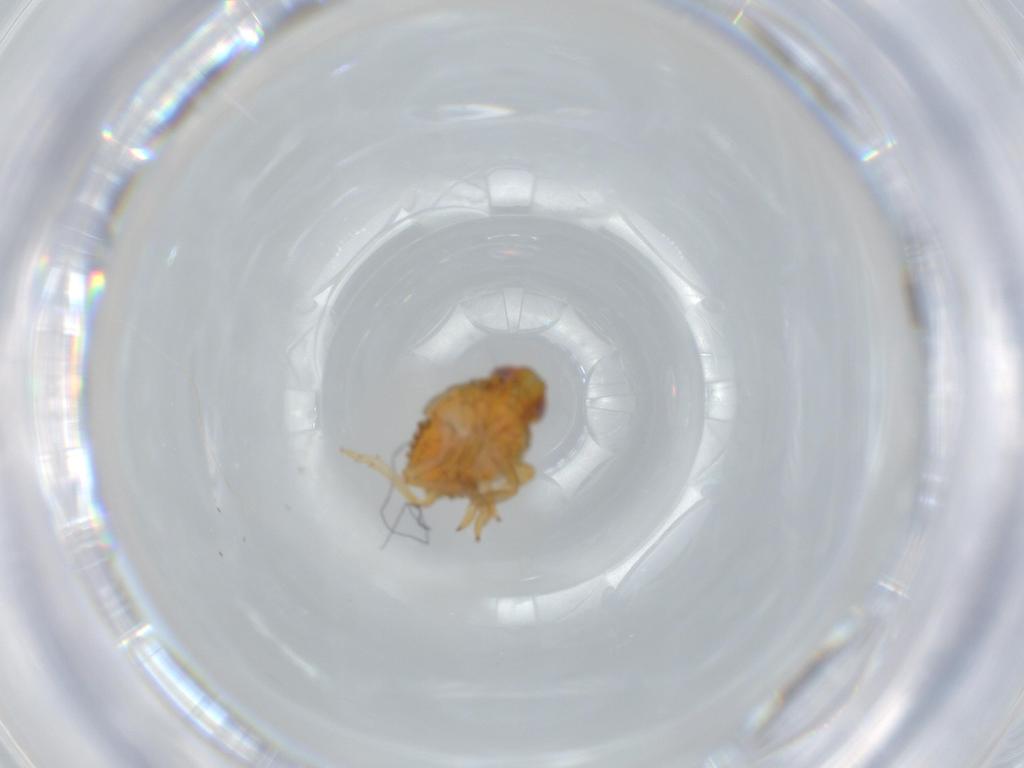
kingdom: Animalia
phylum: Arthropoda
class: Insecta
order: Hemiptera
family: Issidae
